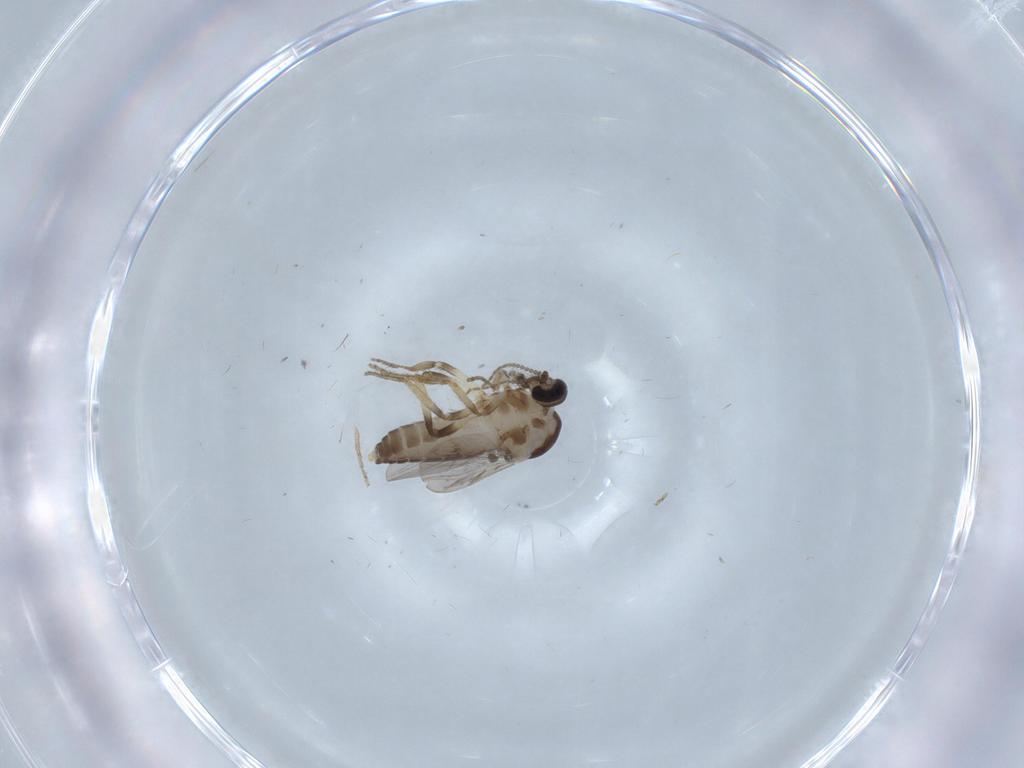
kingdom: Animalia
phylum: Arthropoda
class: Insecta
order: Diptera
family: Ceratopogonidae
